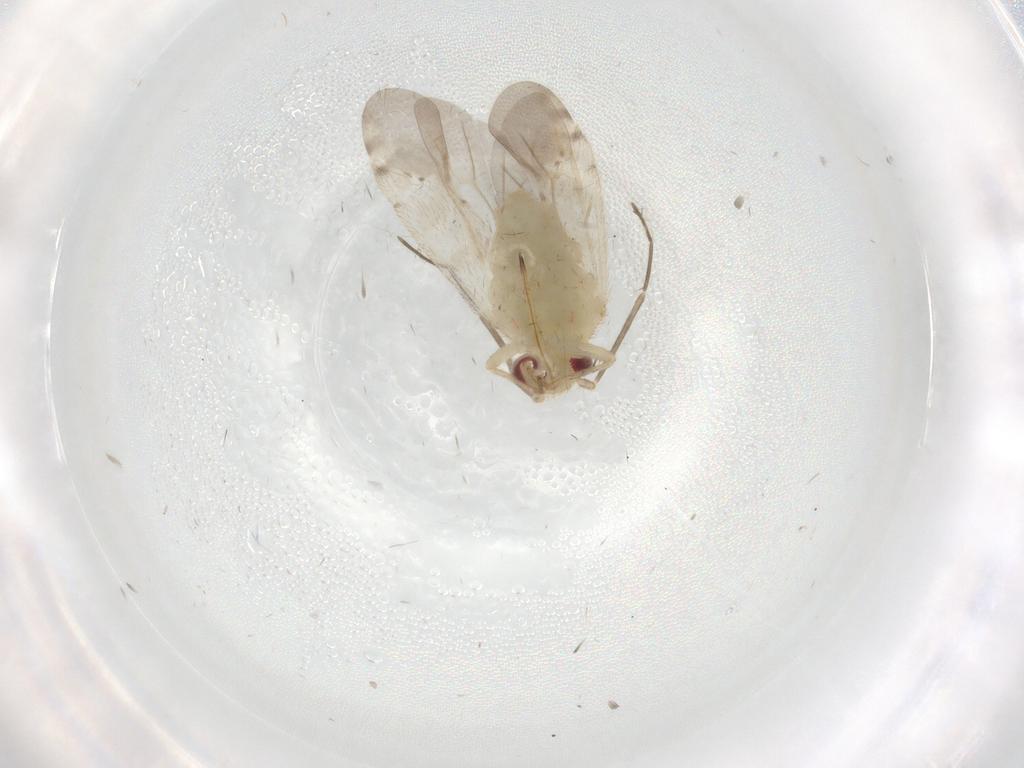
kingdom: Animalia
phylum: Arthropoda
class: Insecta
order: Hemiptera
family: Miridae
